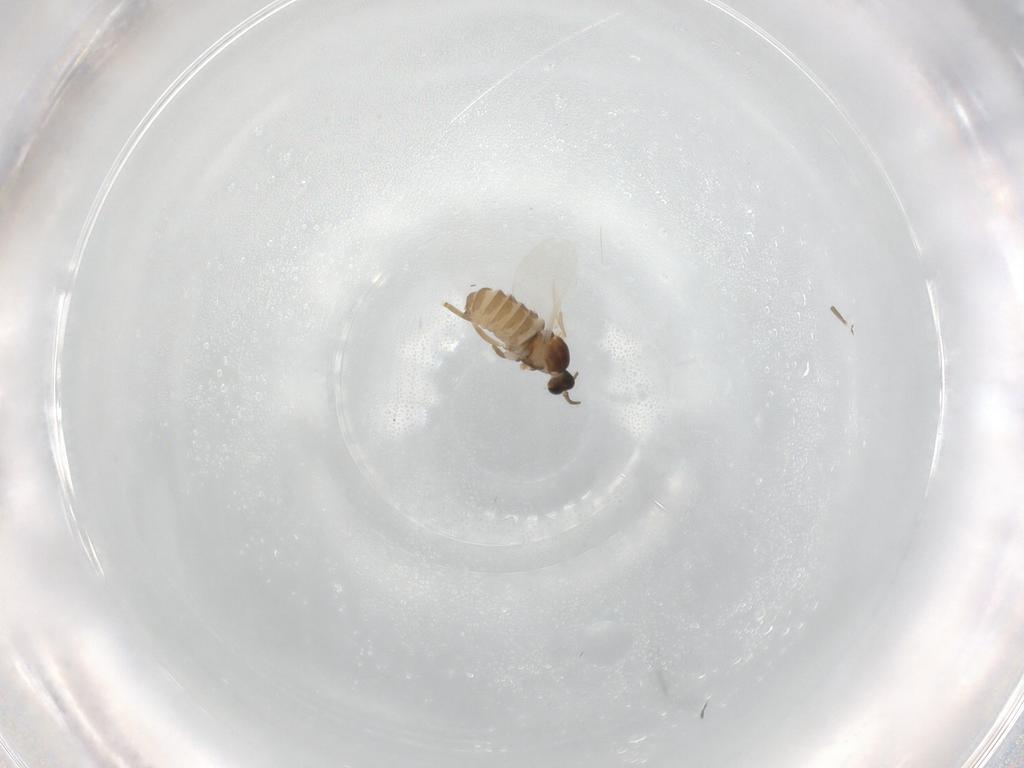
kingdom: Animalia
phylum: Arthropoda
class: Insecta
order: Diptera
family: Cecidomyiidae
